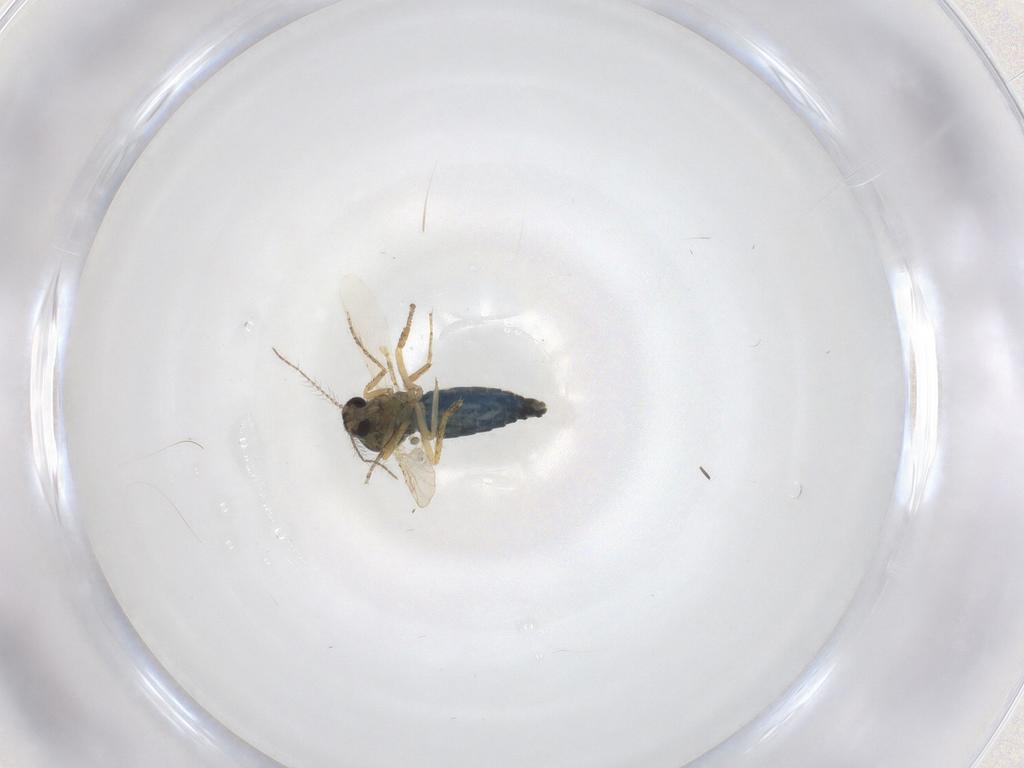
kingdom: Animalia
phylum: Arthropoda
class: Insecta
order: Diptera
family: Ceratopogonidae
